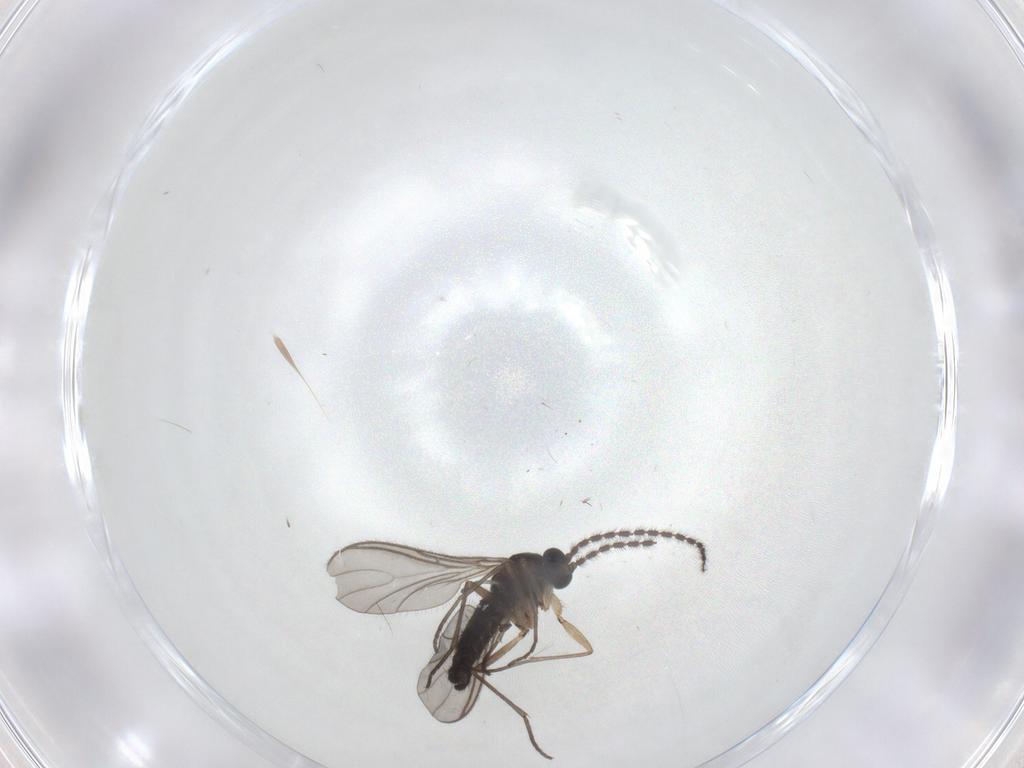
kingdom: Animalia
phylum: Arthropoda
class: Insecta
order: Diptera
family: Sciaridae
